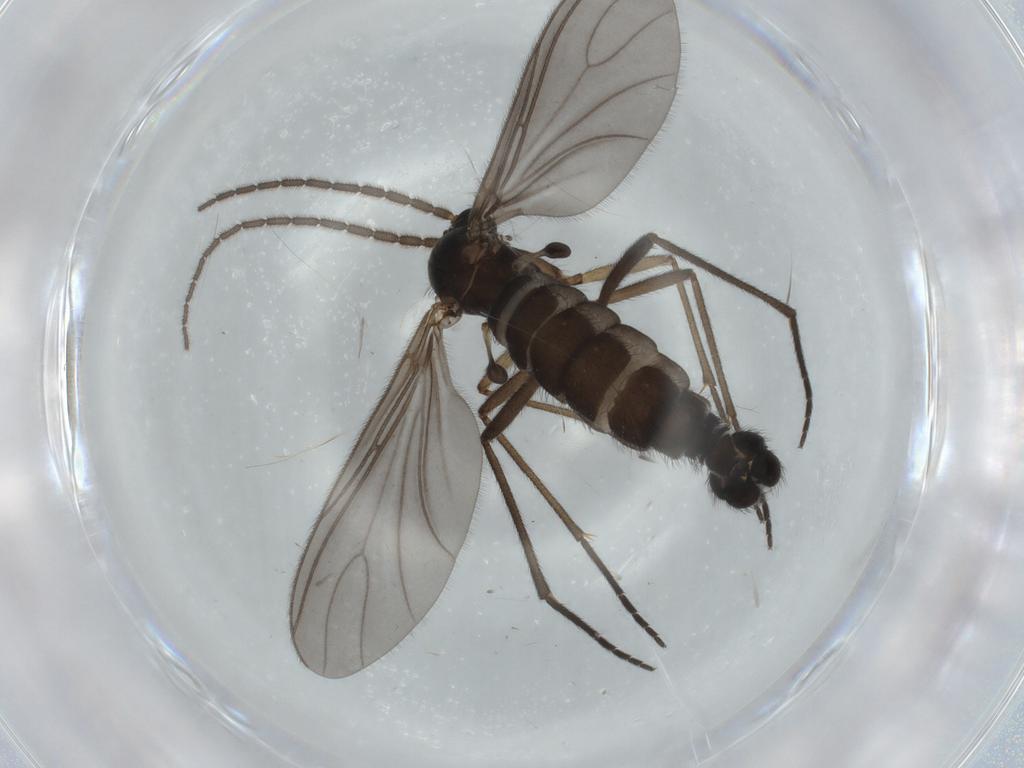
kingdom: Animalia
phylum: Arthropoda
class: Insecta
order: Diptera
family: Sciaridae
